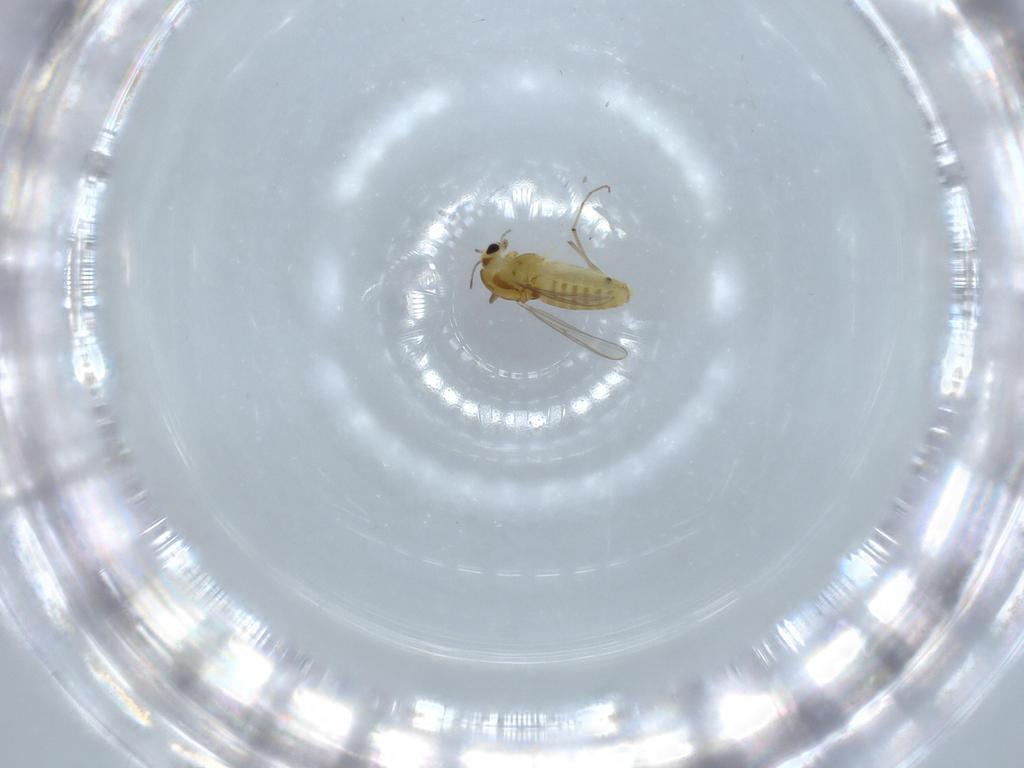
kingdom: Animalia
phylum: Arthropoda
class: Insecta
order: Diptera
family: Chironomidae
